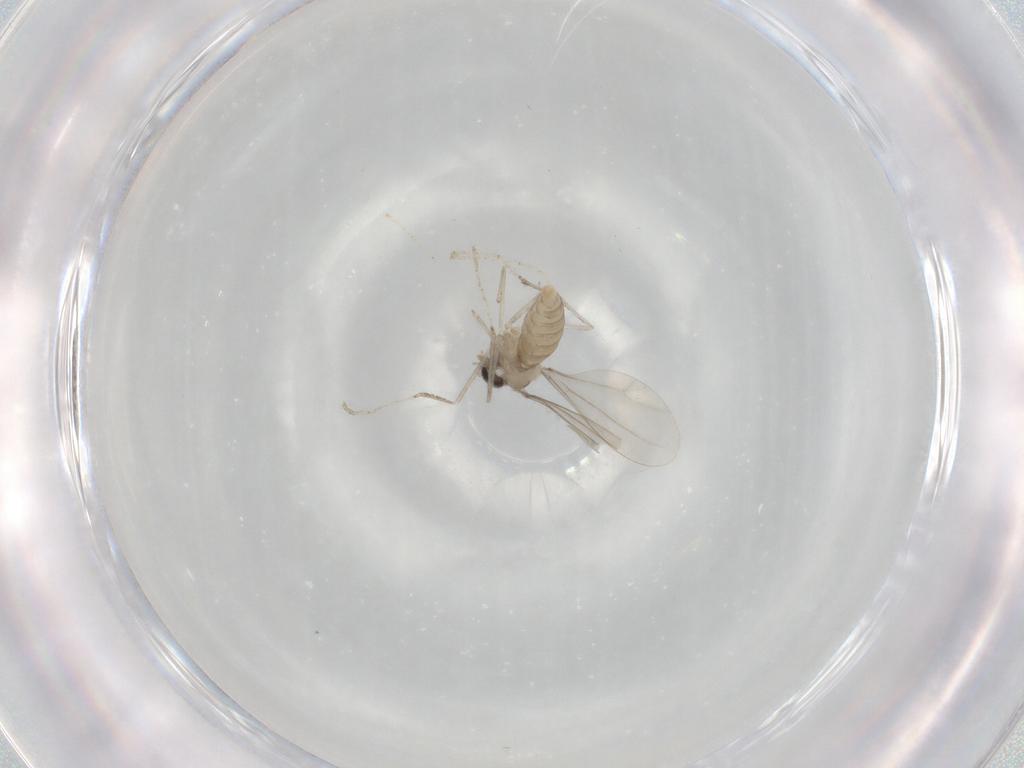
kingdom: Animalia
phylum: Arthropoda
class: Insecta
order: Diptera
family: Cecidomyiidae
